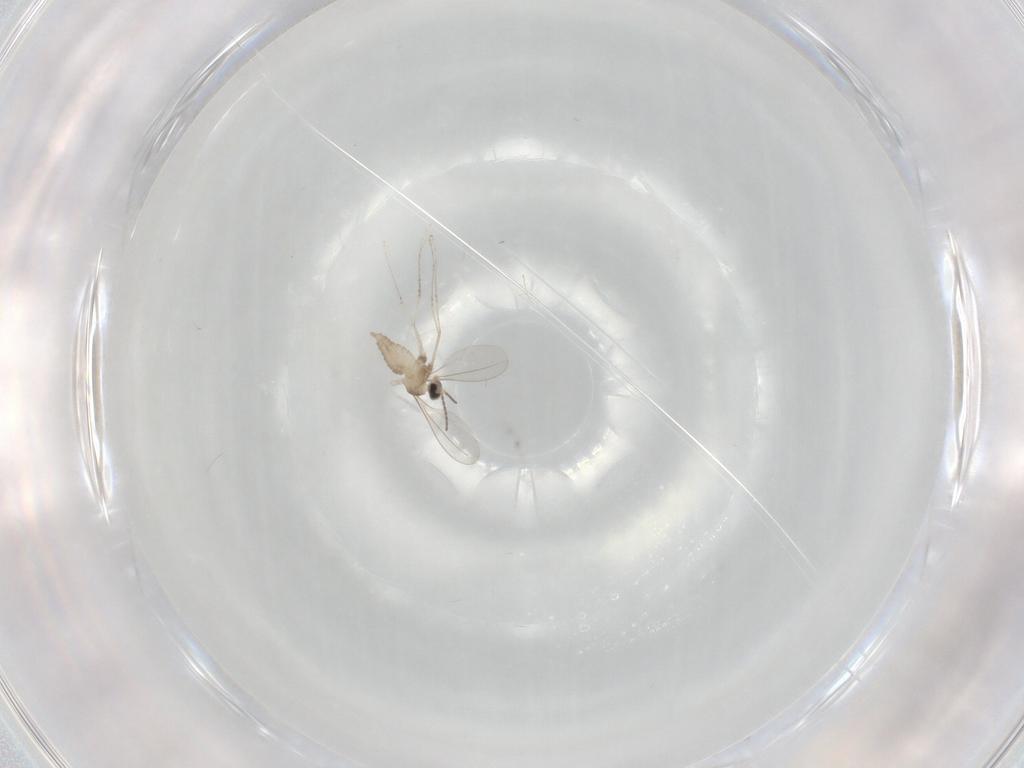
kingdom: Animalia
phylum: Arthropoda
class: Insecta
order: Diptera
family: Cecidomyiidae
